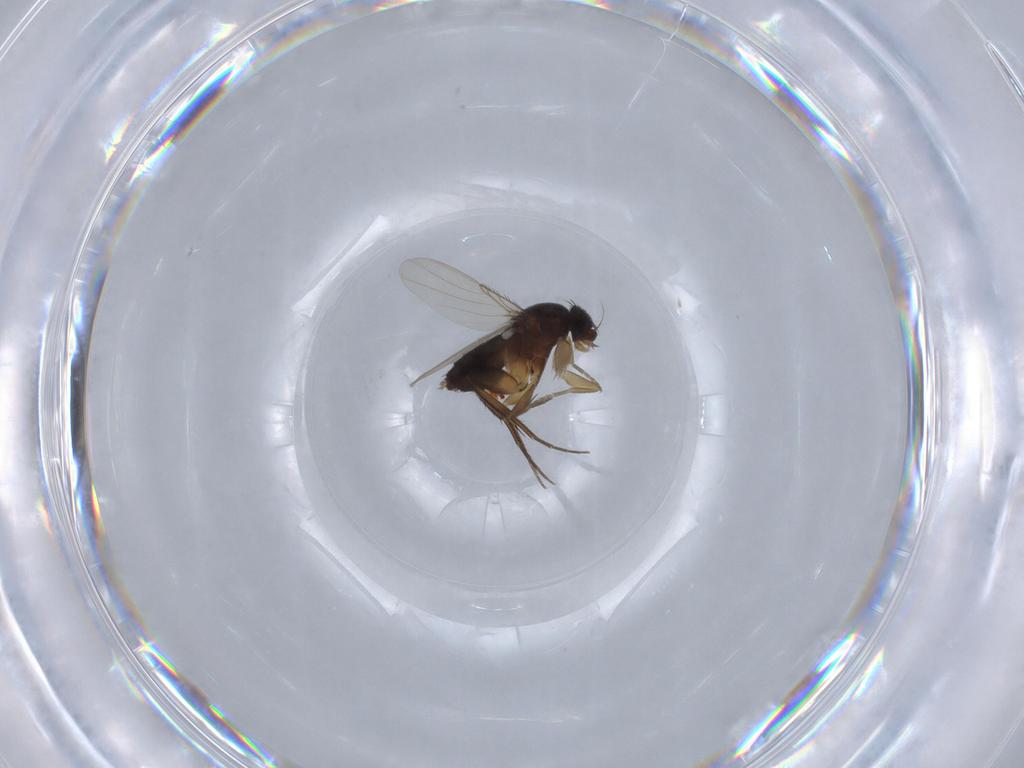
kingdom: Animalia
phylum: Arthropoda
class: Insecta
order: Diptera
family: Phoridae
